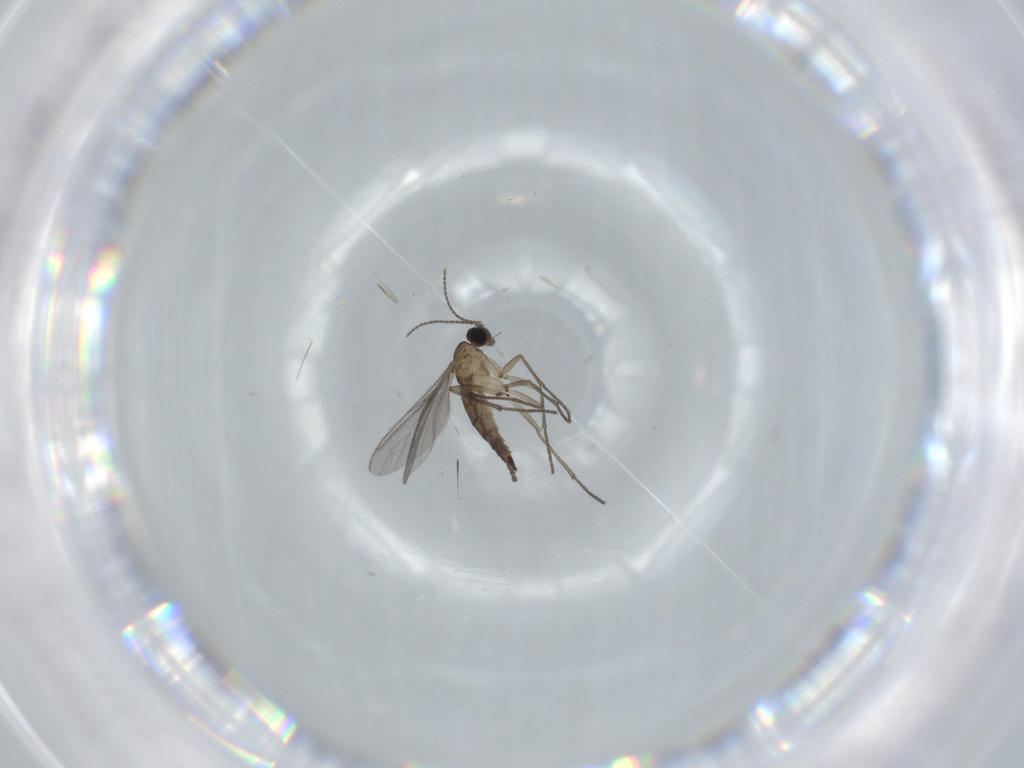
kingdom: Animalia
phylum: Arthropoda
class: Insecta
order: Diptera
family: Sciaridae
